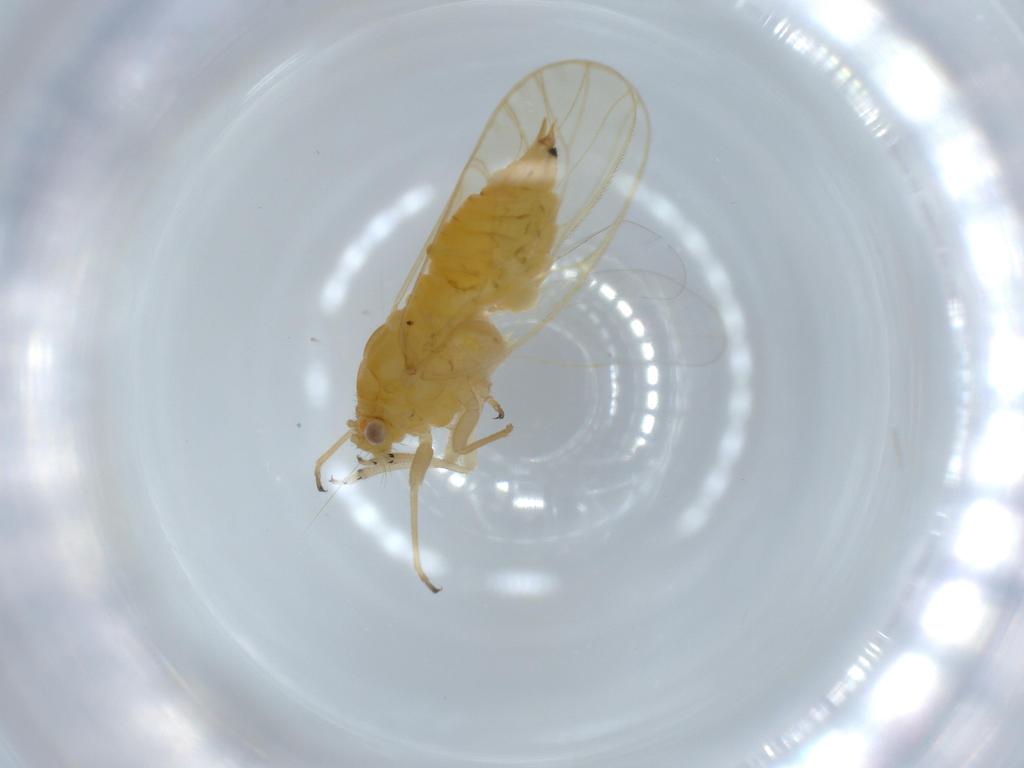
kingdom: Animalia
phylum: Arthropoda
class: Insecta
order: Hemiptera
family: Psyllidae
